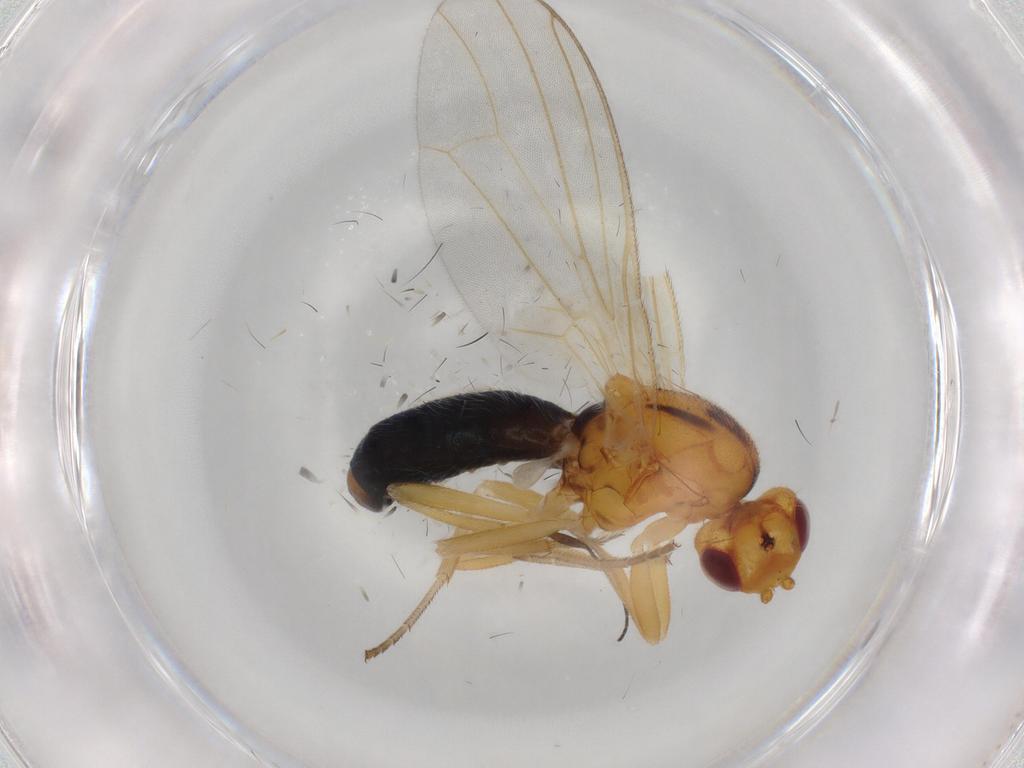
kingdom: Animalia
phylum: Arthropoda
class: Insecta
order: Diptera
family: Psilidae
